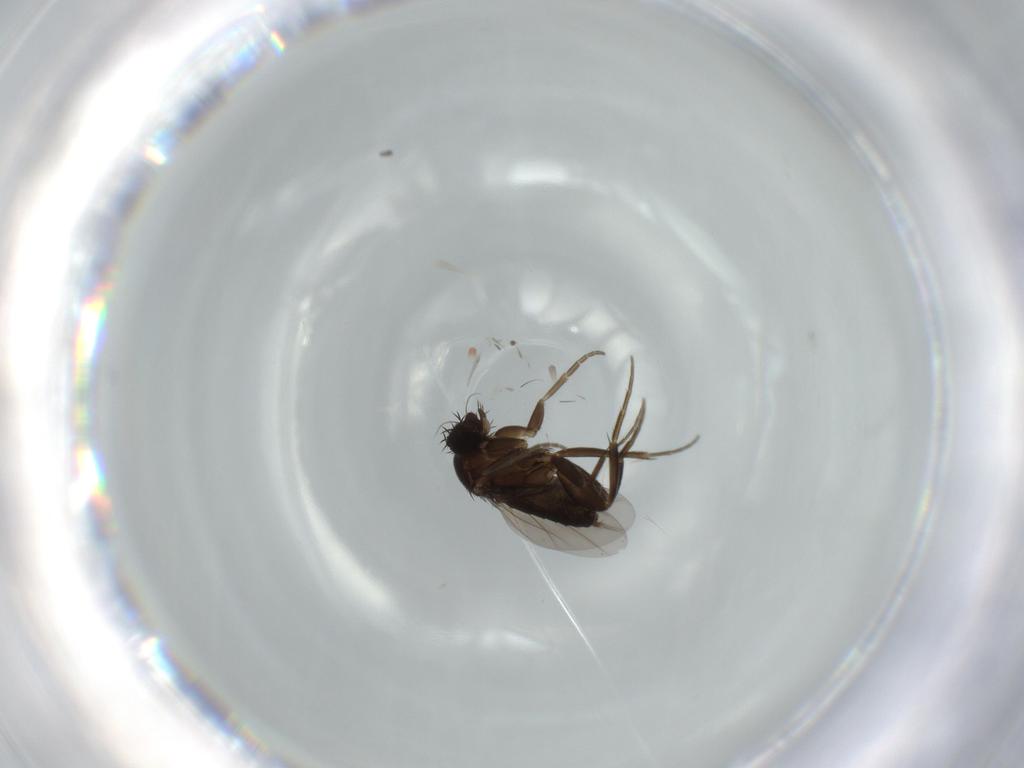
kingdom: Animalia
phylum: Arthropoda
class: Insecta
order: Diptera
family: Phoridae
